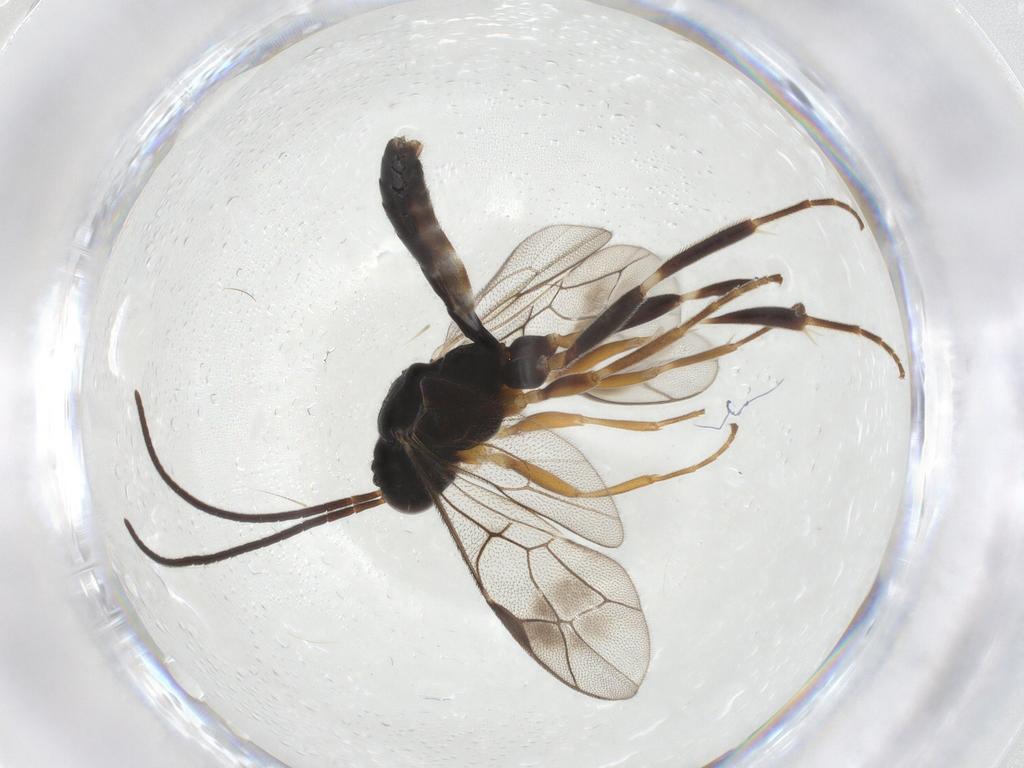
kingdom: Animalia
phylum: Arthropoda
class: Insecta
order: Hymenoptera
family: Ichneumonidae
